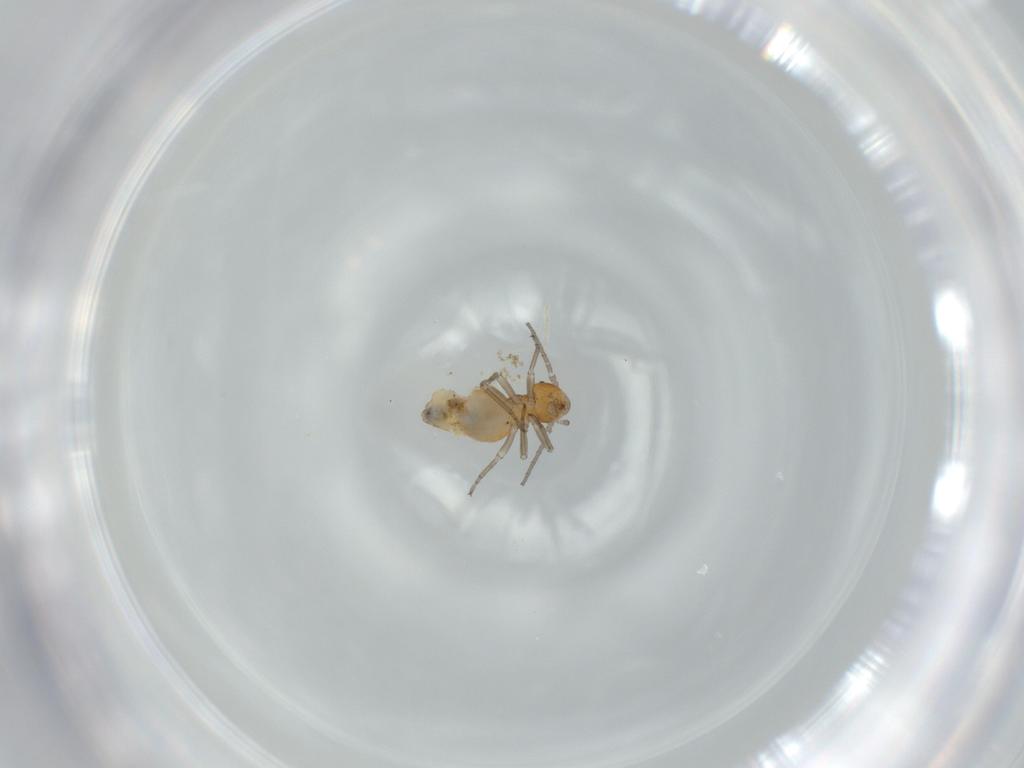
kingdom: Animalia
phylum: Arthropoda
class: Insecta
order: Psocodea
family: Psocidae
